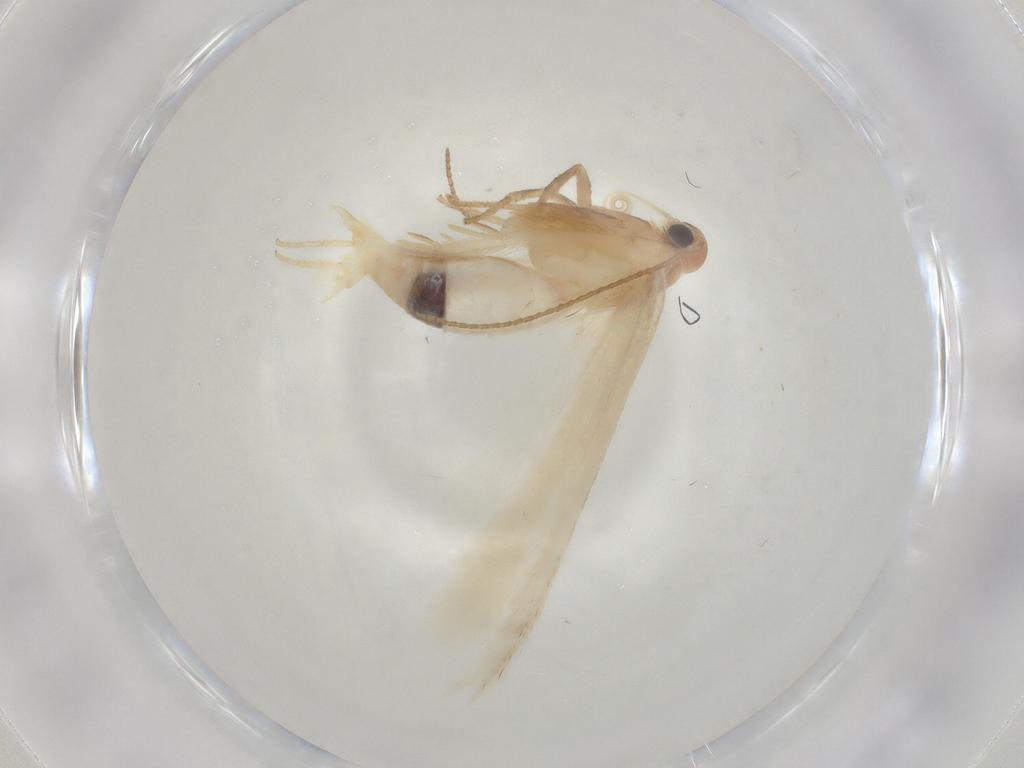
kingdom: Animalia
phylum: Arthropoda
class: Insecta
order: Lepidoptera
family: Gelechiidae
